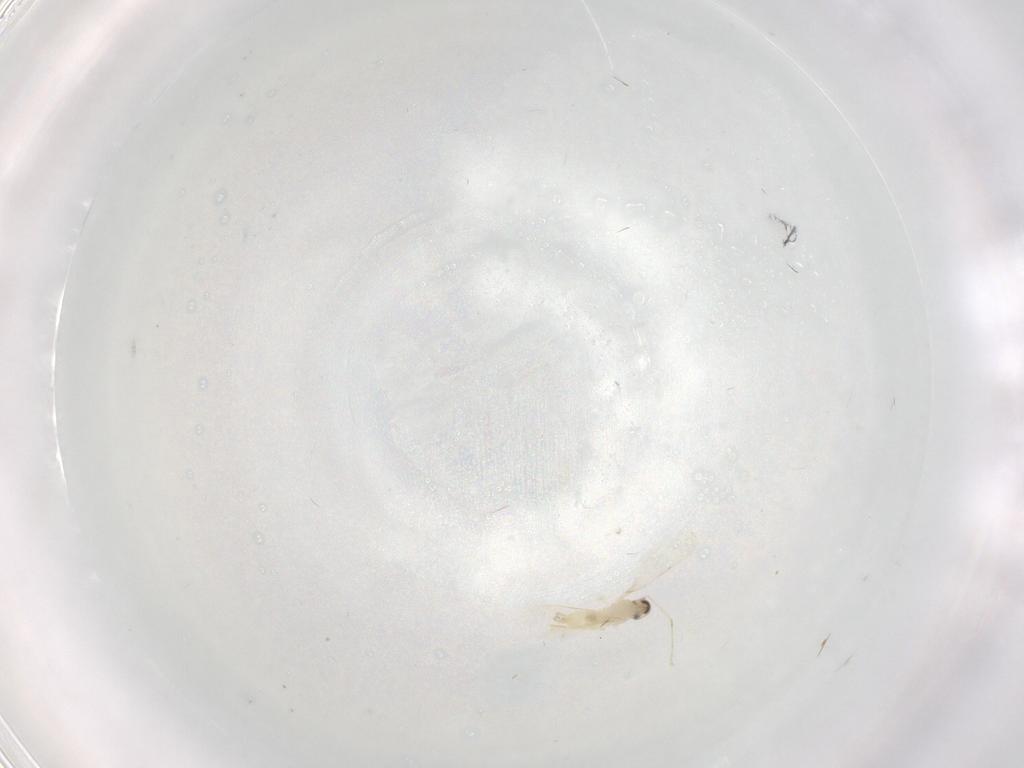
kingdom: Animalia
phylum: Arthropoda
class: Insecta
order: Diptera
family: Cecidomyiidae
